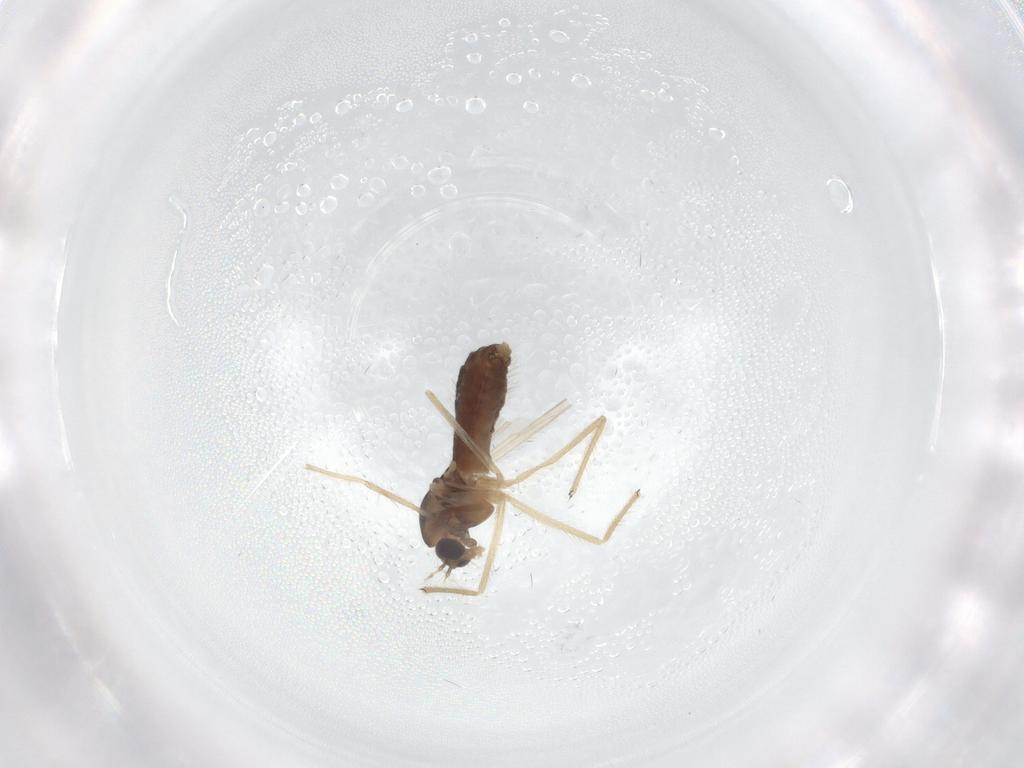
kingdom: Animalia
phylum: Arthropoda
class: Insecta
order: Diptera
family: Chironomidae
